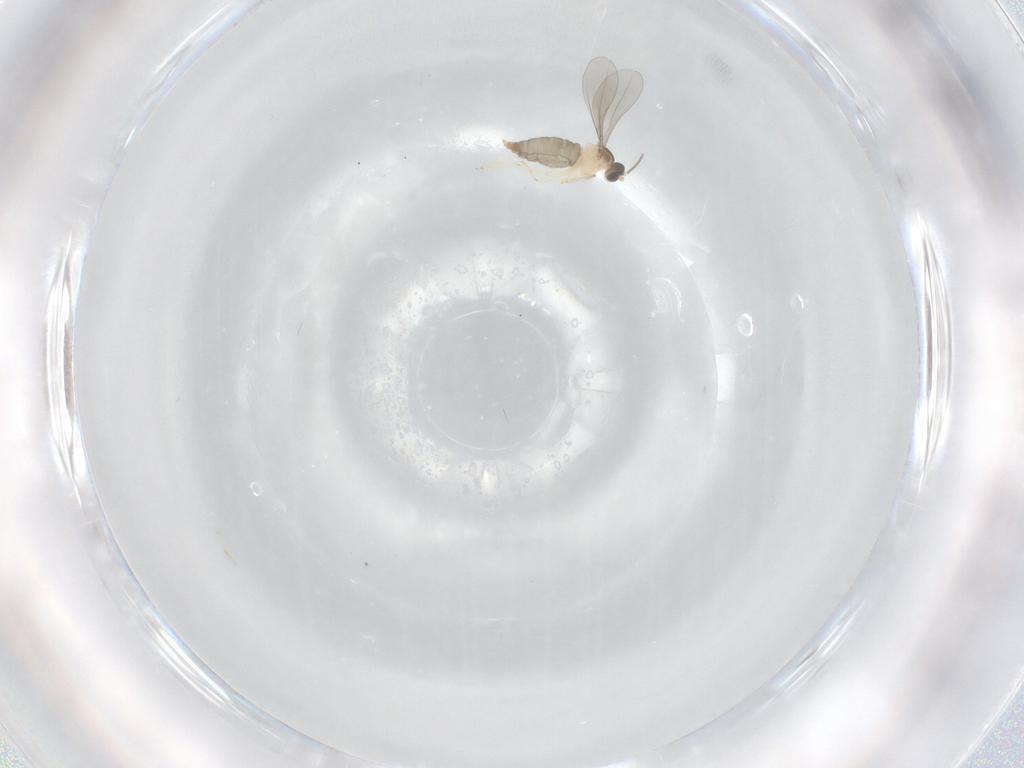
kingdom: Animalia
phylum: Arthropoda
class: Insecta
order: Diptera
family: Cecidomyiidae
